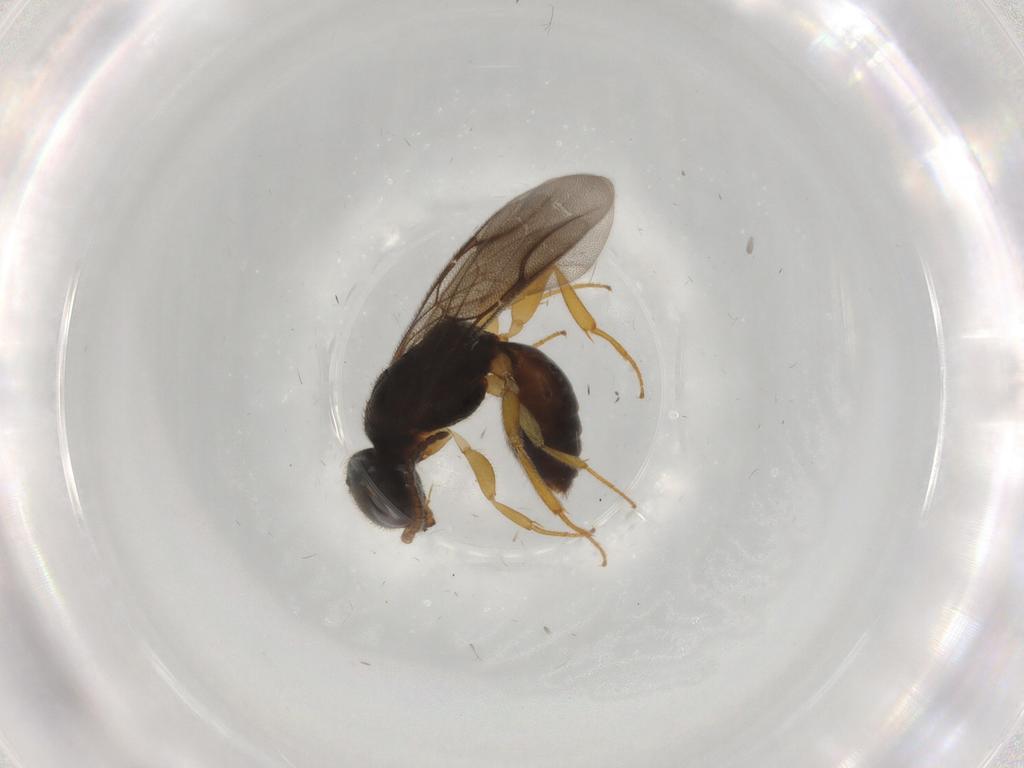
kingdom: Animalia
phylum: Arthropoda
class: Insecta
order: Hymenoptera
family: Bethylidae
